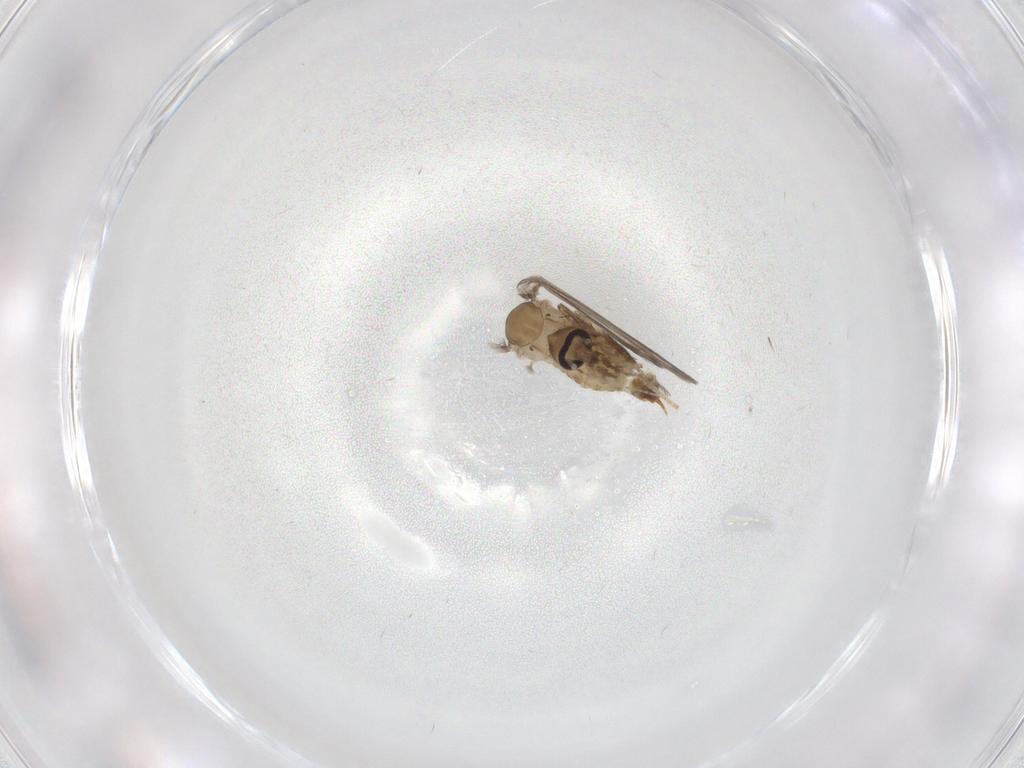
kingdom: Animalia
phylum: Arthropoda
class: Insecta
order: Diptera
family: Psychodidae
